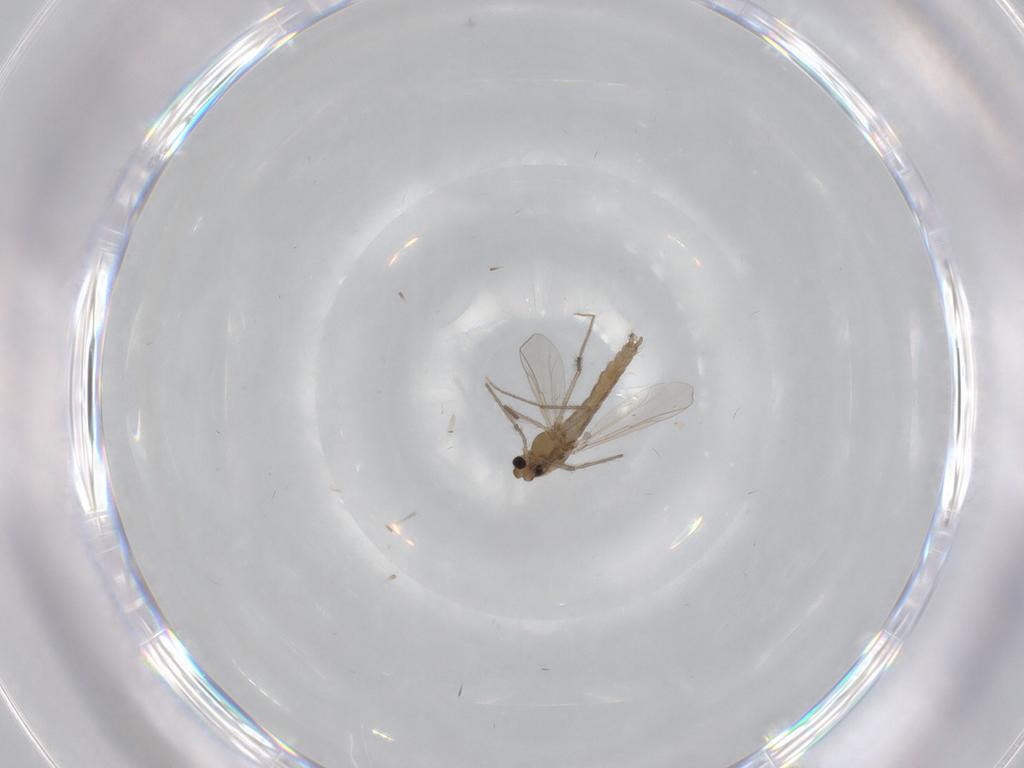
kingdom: Animalia
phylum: Arthropoda
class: Insecta
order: Diptera
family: Chironomidae
